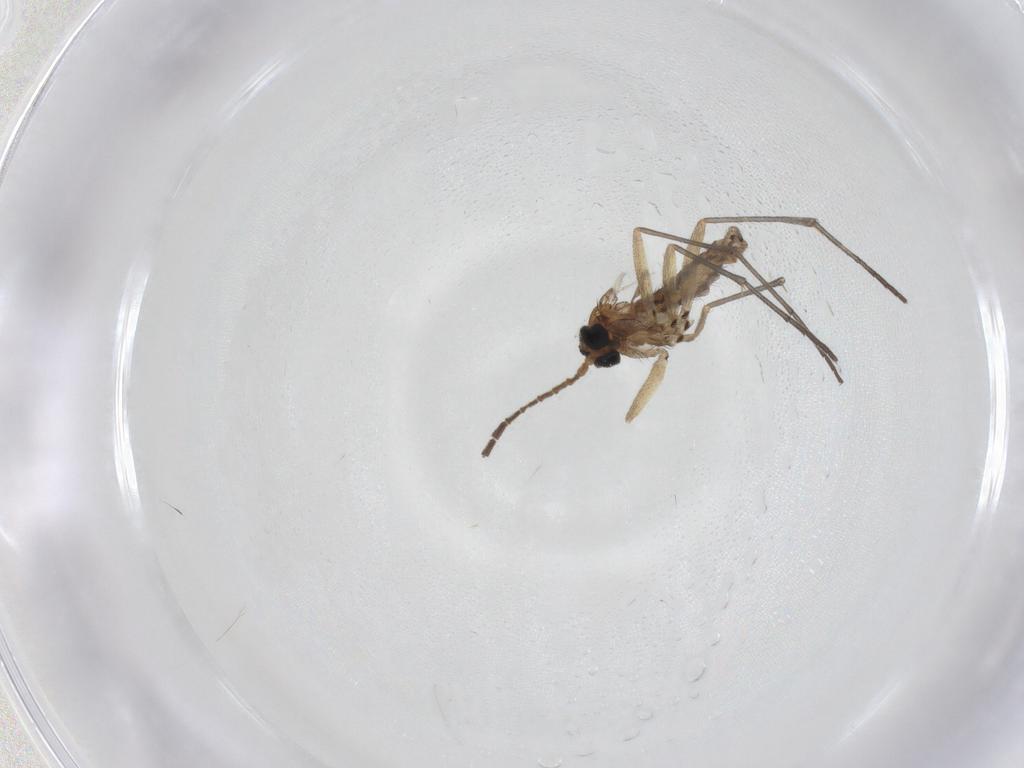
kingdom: Animalia
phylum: Arthropoda
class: Insecta
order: Diptera
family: Sciaridae
